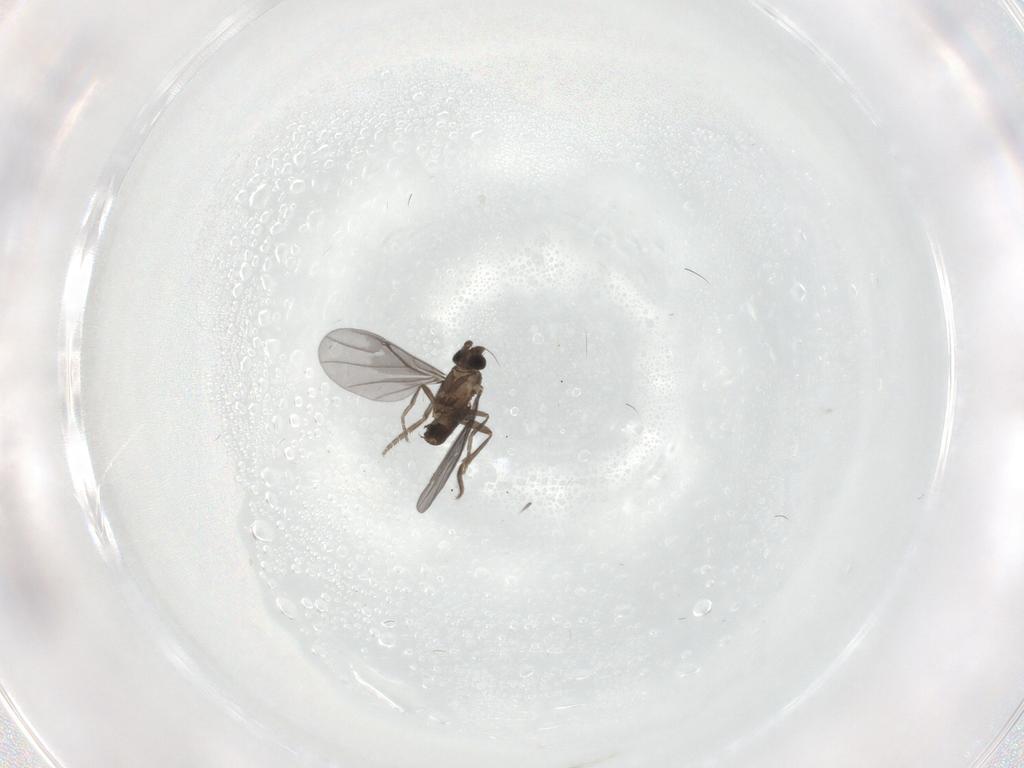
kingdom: Animalia
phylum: Arthropoda
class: Insecta
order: Diptera
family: Phoridae
